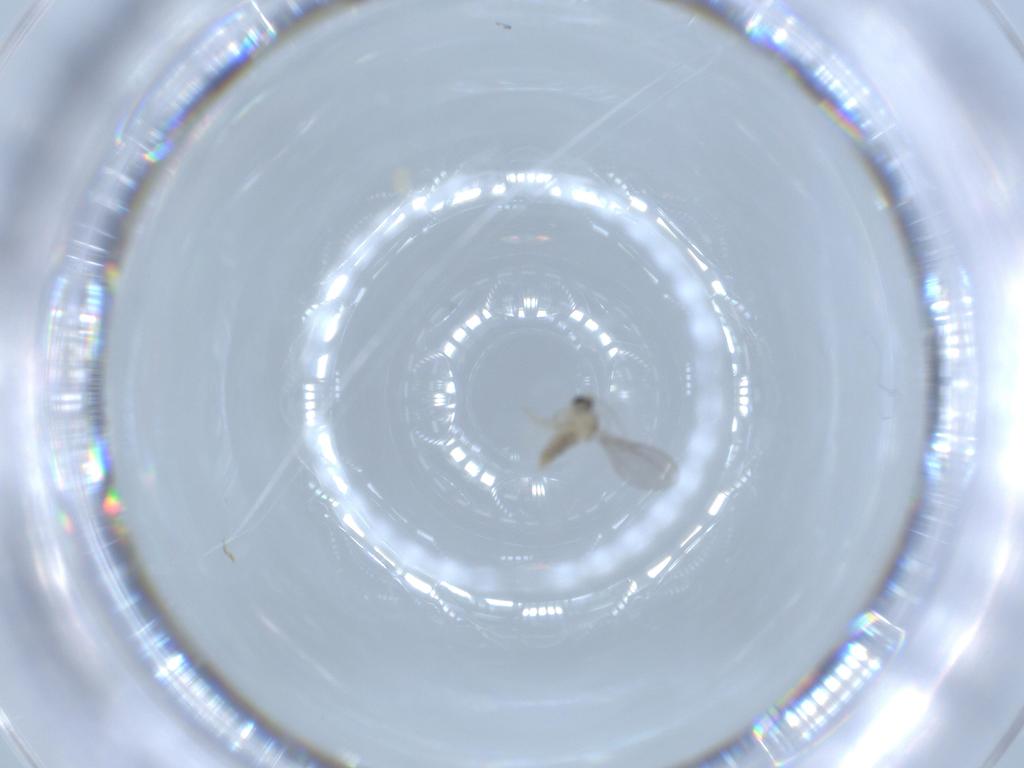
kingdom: Animalia
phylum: Arthropoda
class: Insecta
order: Diptera
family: Cecidomyiidae
